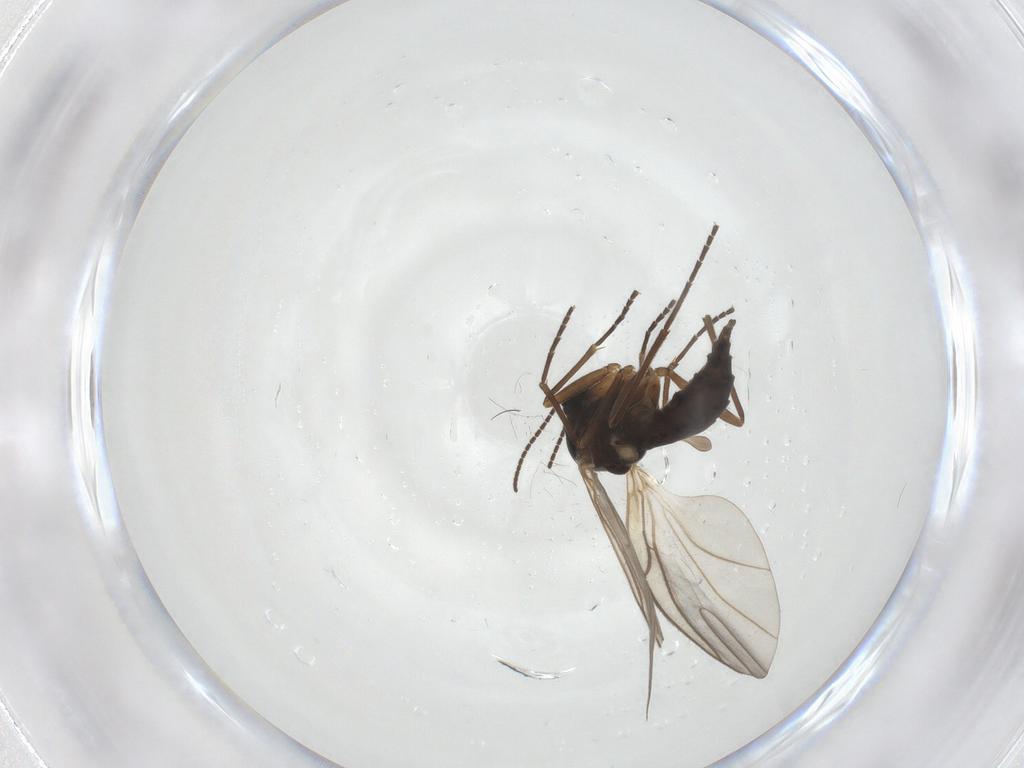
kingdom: Animalia
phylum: Arthropoda
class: Insecta
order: Diptera
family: Sciaridae
